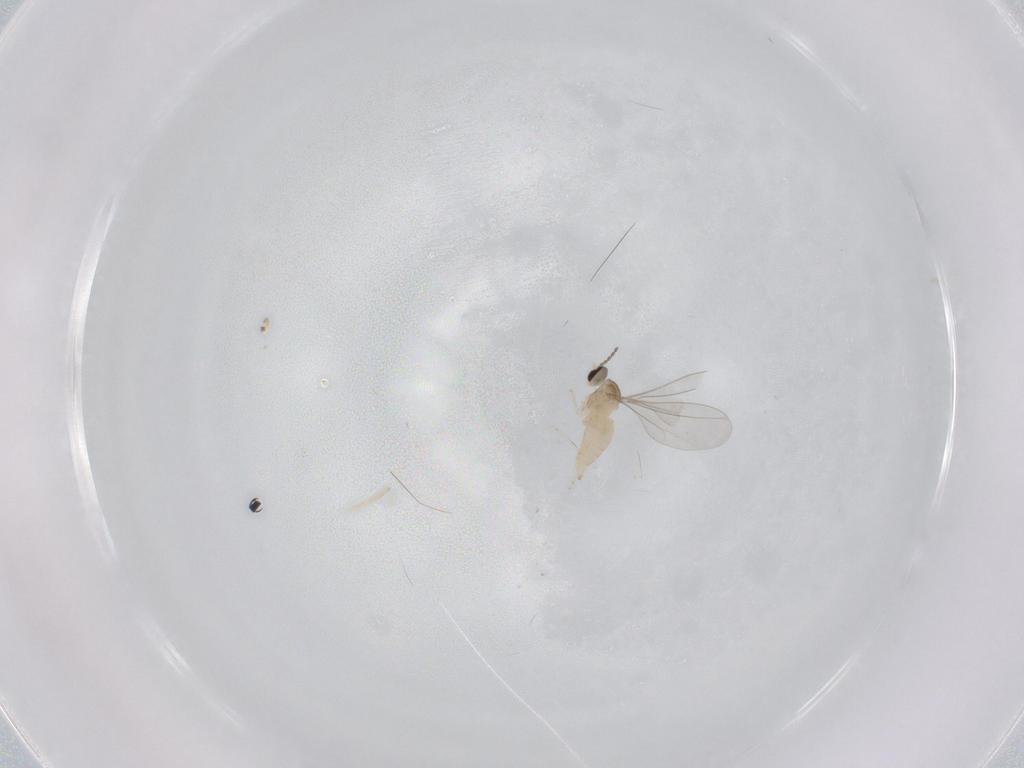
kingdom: Animalia
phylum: Arthropoda
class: Insecta
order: Diptera
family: Cecidomyiidae
